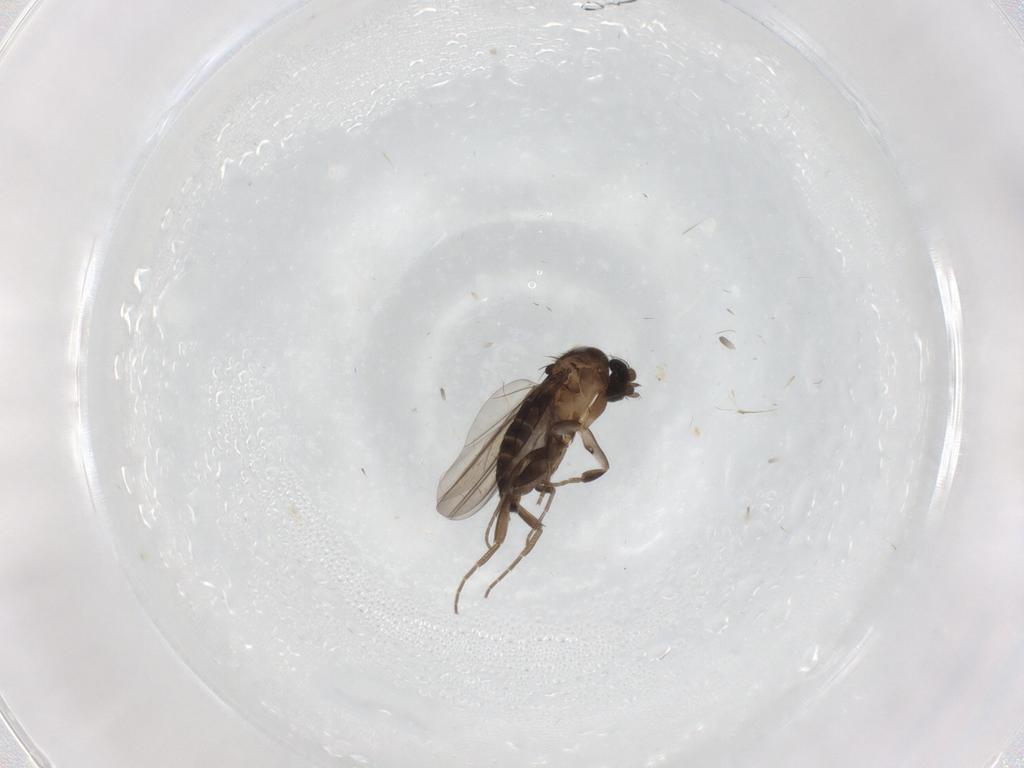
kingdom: Animalia
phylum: Arthropoda
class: Insecta
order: Diptera
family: Phoridae
